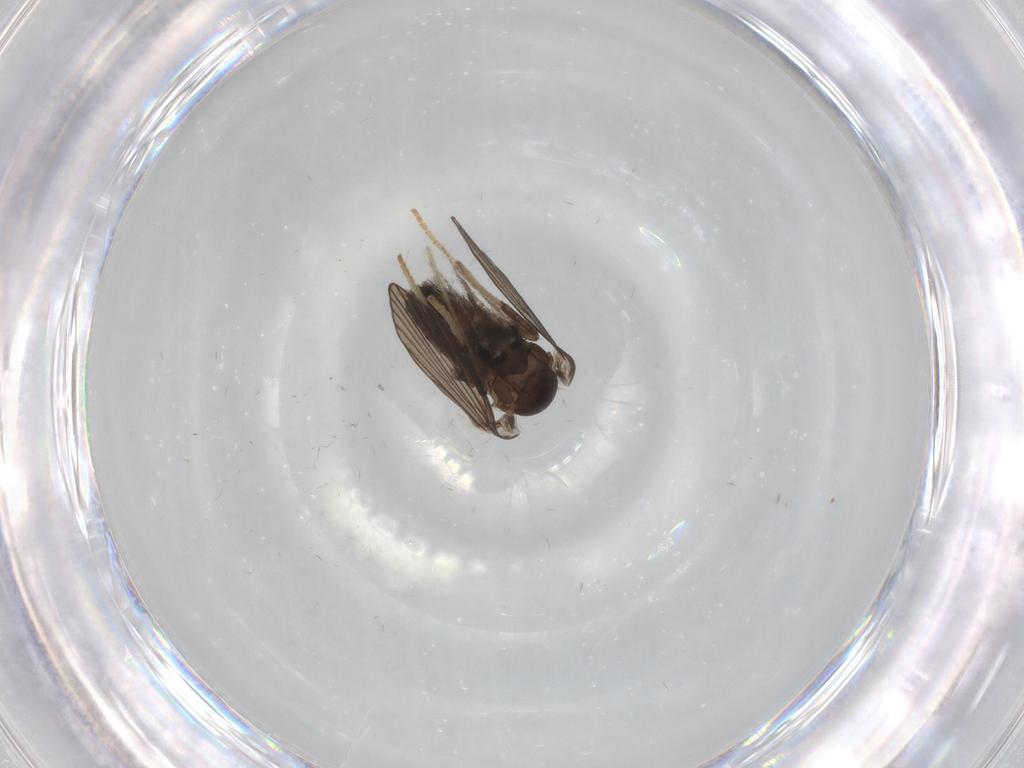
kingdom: Animalia
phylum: Arthropoda
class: Insecta
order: Diptera
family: Psychodidae
